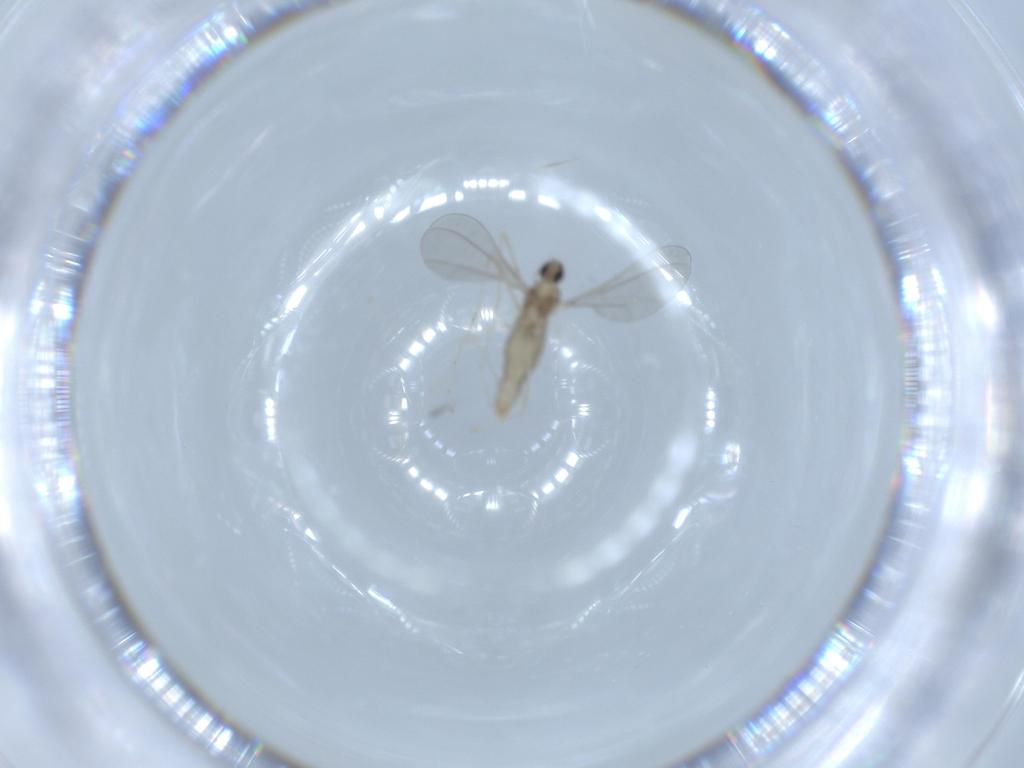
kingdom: Animalia
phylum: Arthropoda
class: Insecta
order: Diptera
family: Cecidomyiidae
